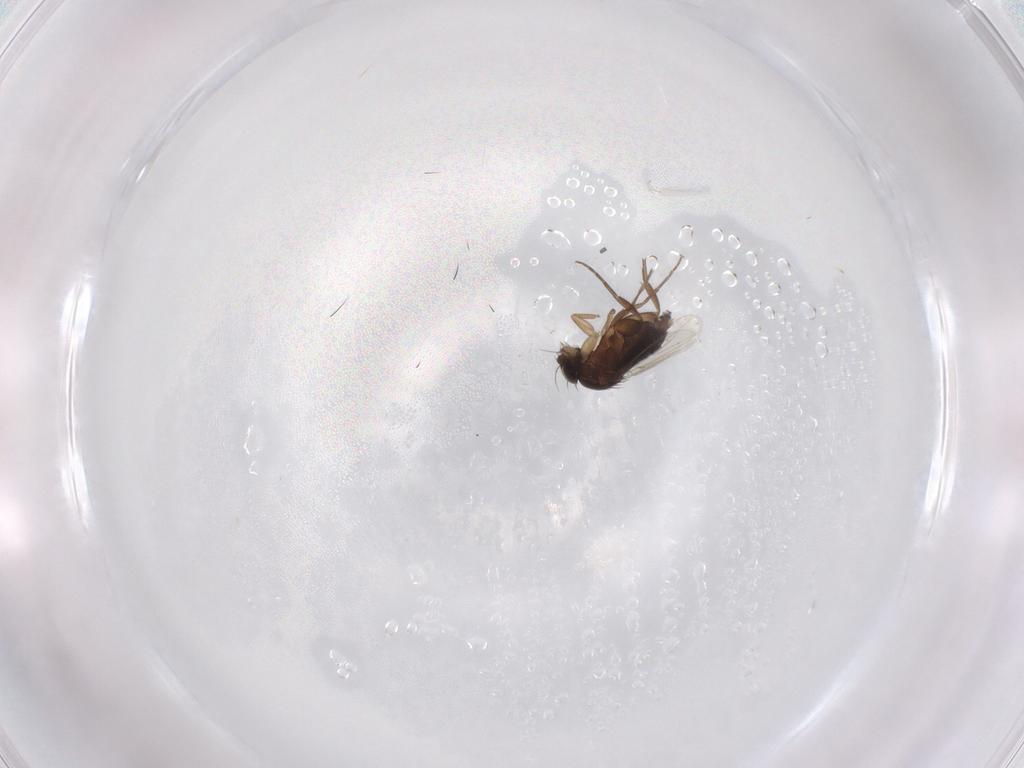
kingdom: Animalia
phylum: Arthropoda
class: Insecta
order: Diptera
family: Phoridae
